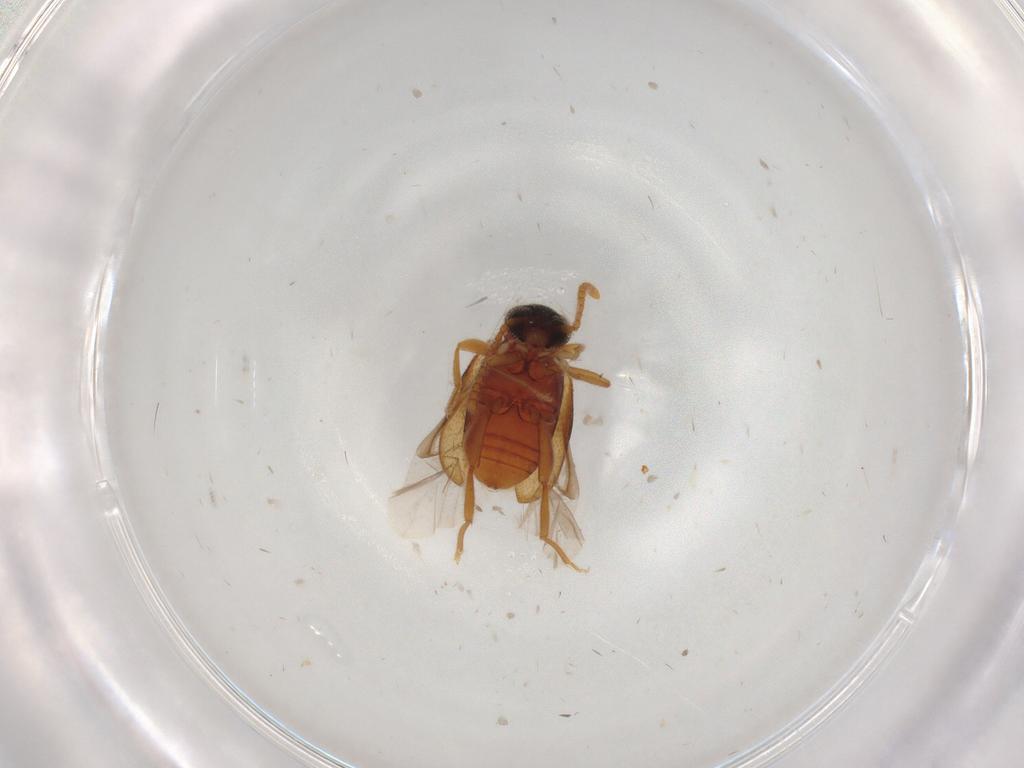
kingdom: Animalia
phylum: Arthropoda
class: Insecta
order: Coleoptera
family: Aderidae
